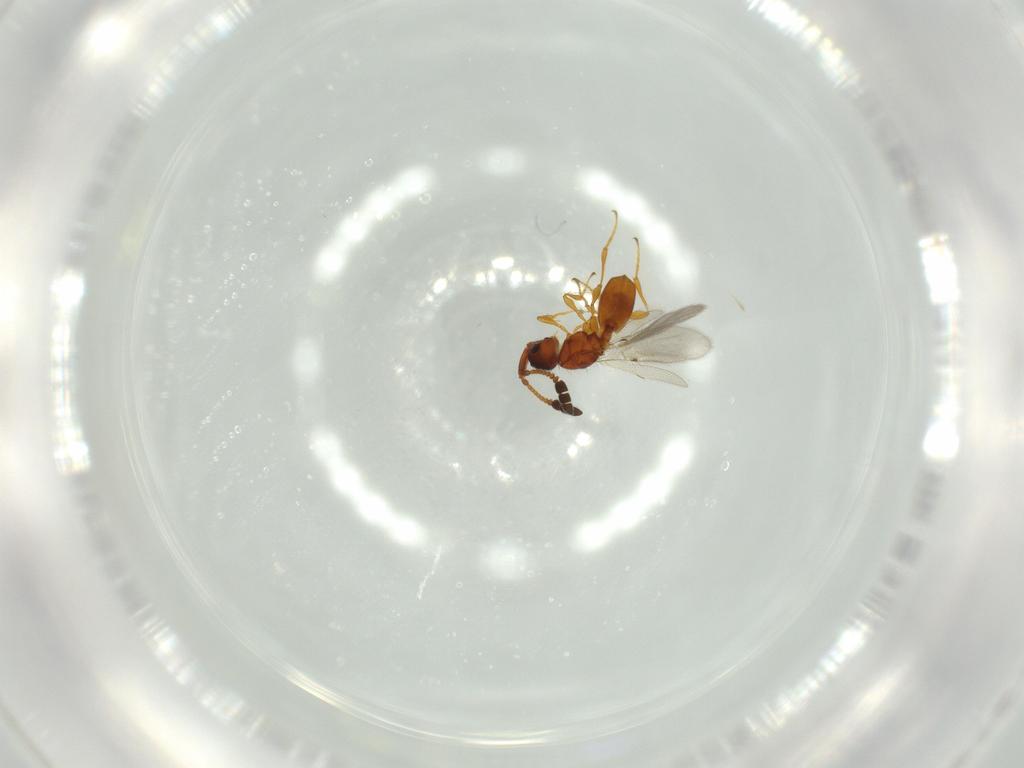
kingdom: Animalia
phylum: Arthropoda
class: Insecta
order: Hymenoptera
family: Diapriidae
